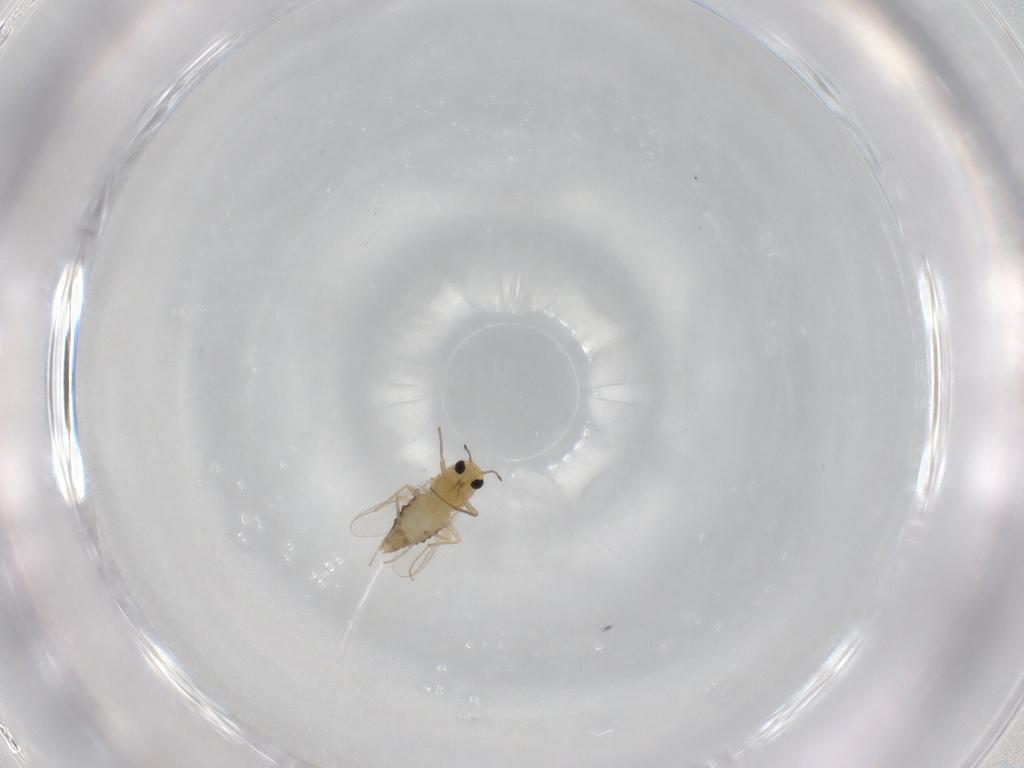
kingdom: Animalia
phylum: Arthropoda
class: Insecta
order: Diptera
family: Chironomidae
